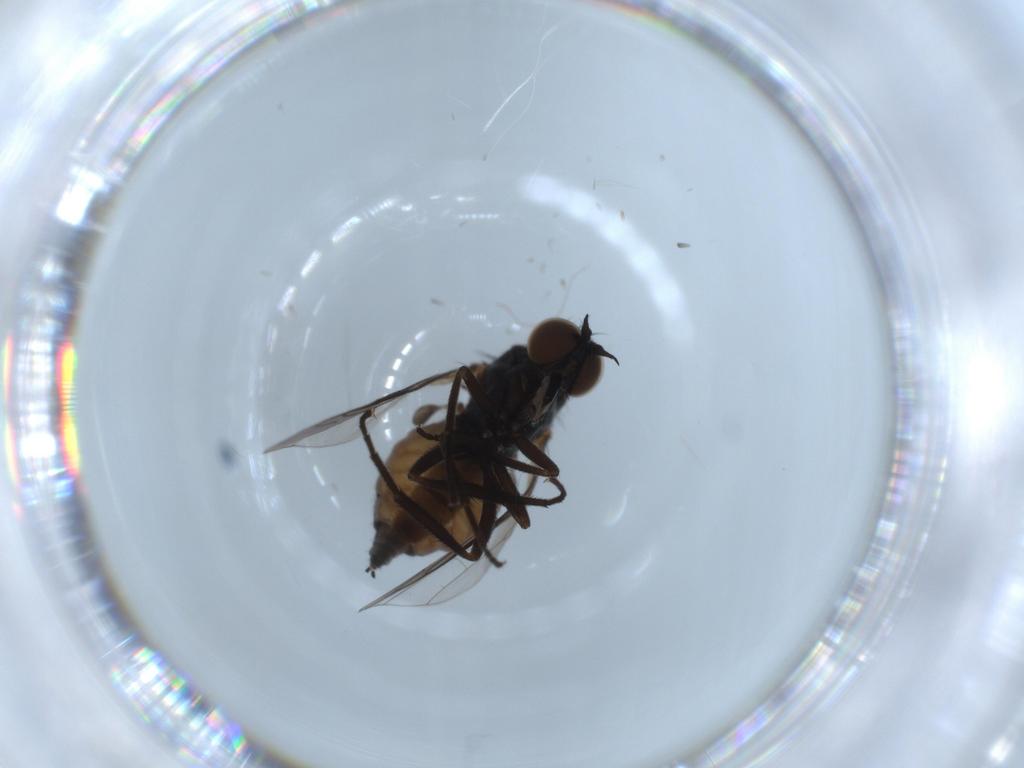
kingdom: Animalia
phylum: Arthropoda
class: Insecta
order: Diptera
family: Empididae
